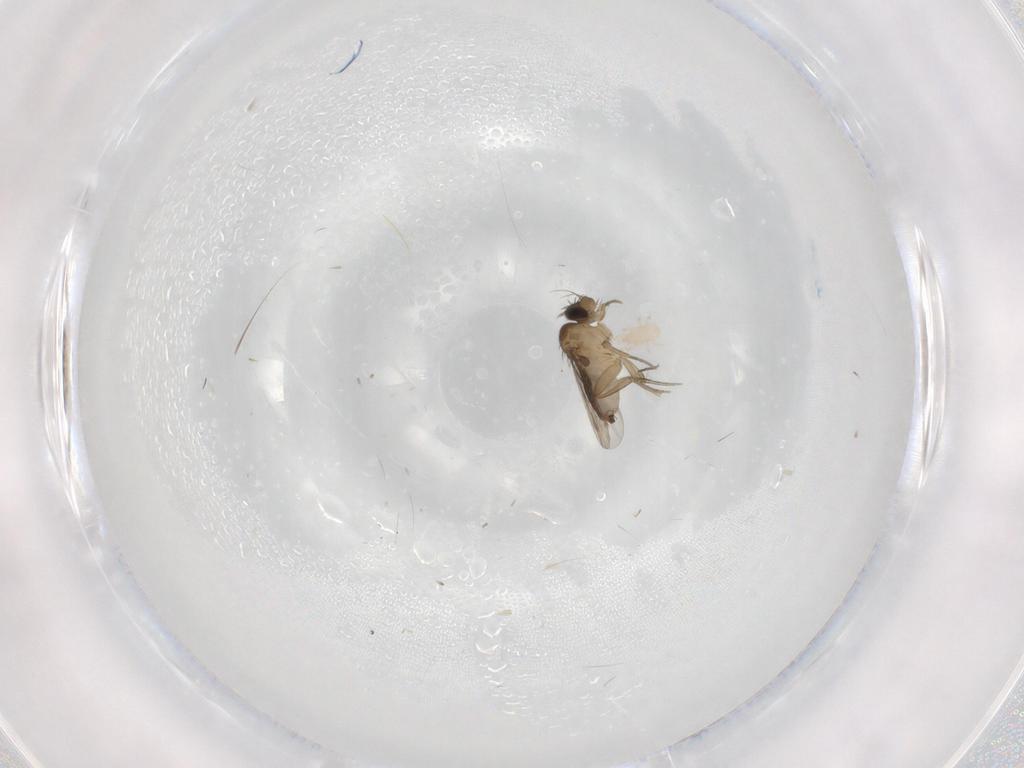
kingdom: Animalia
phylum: Arthropoda
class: Insecta
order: Diptera
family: Phoridae
